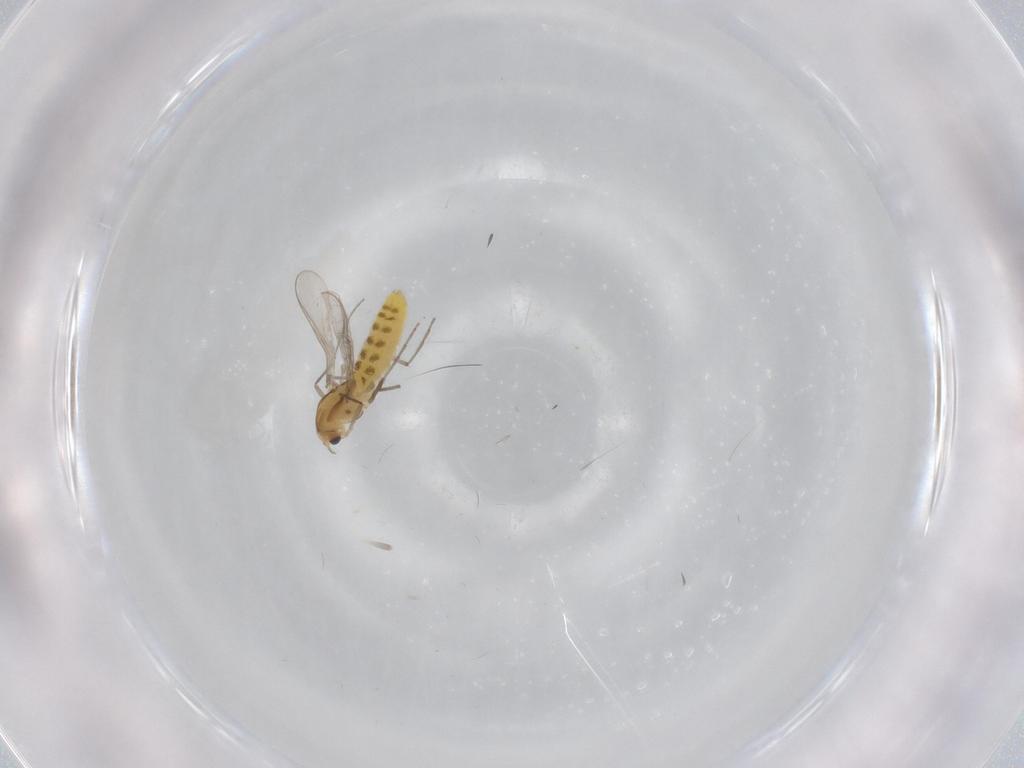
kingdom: Animalia
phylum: Arthropoda
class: Insecta
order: Diptera
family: Chironomidae
